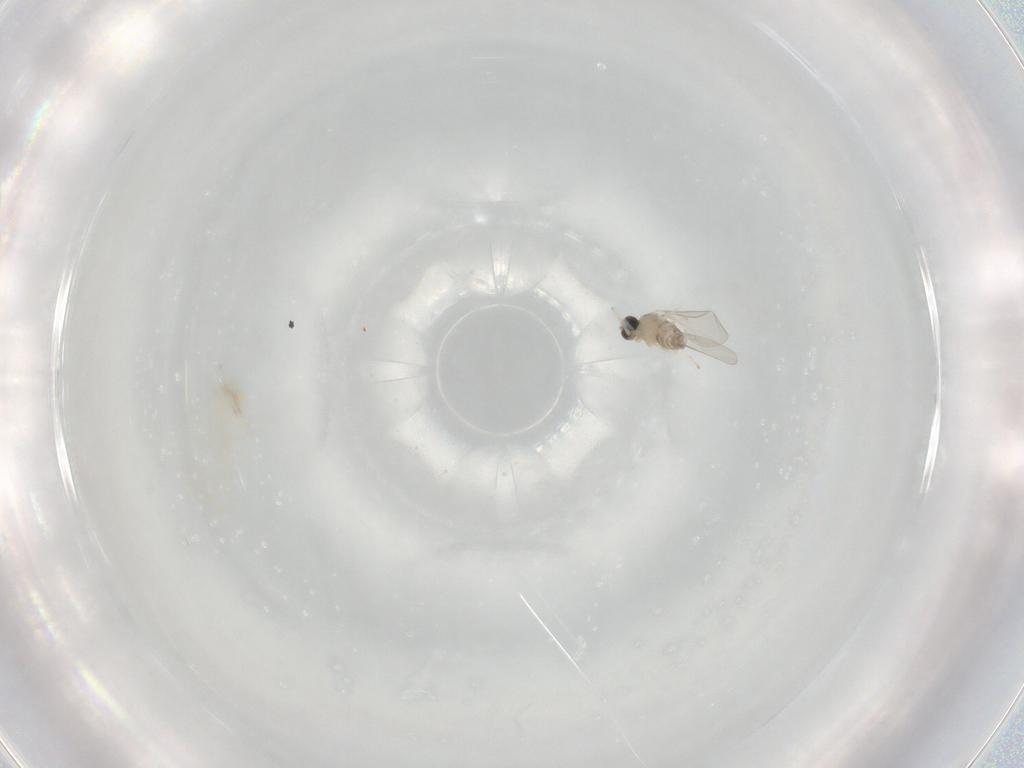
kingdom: Animalia
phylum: Arthropoda
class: Insecta
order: Diptera
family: Cecidomyiidae
